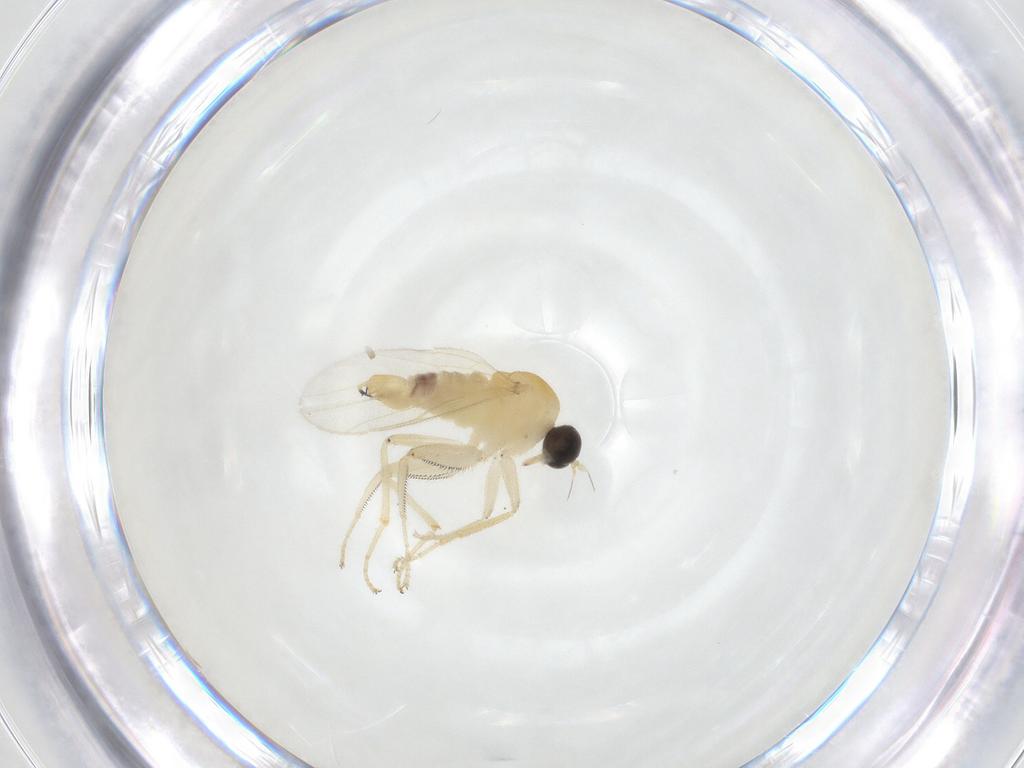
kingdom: Animalia
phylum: Arthropoda
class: Insecta
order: Diptera
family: Chironomidae
